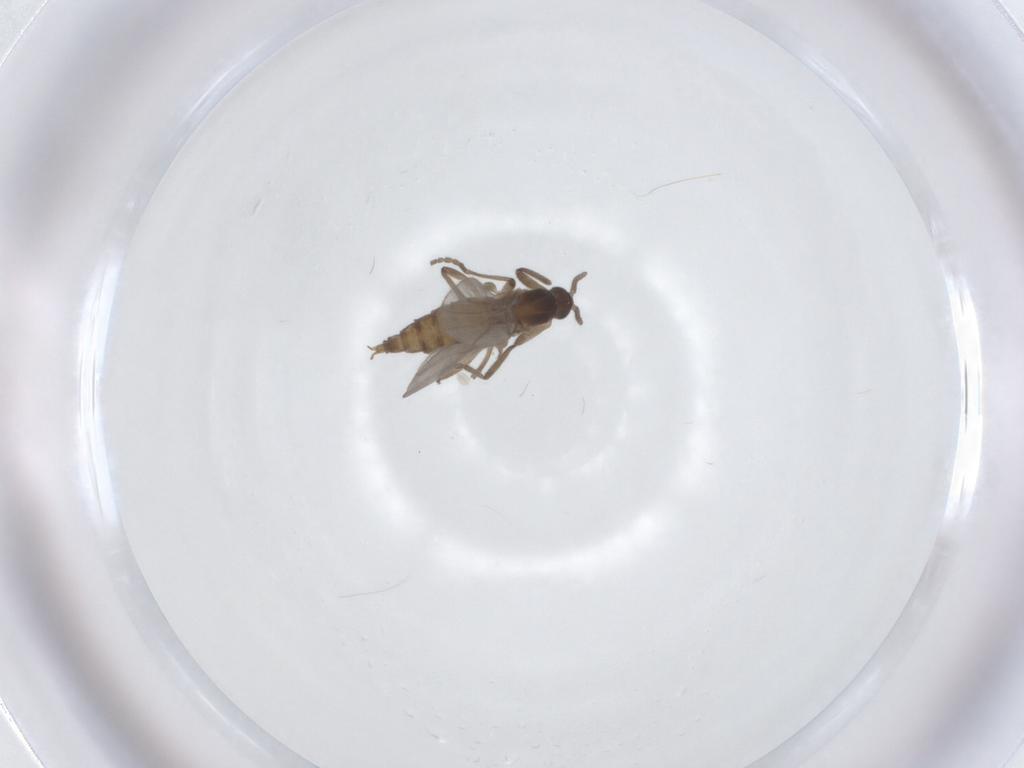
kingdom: Animalia
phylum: Arthropoda
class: Insecta
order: Diptera
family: Cecidomyiidae
